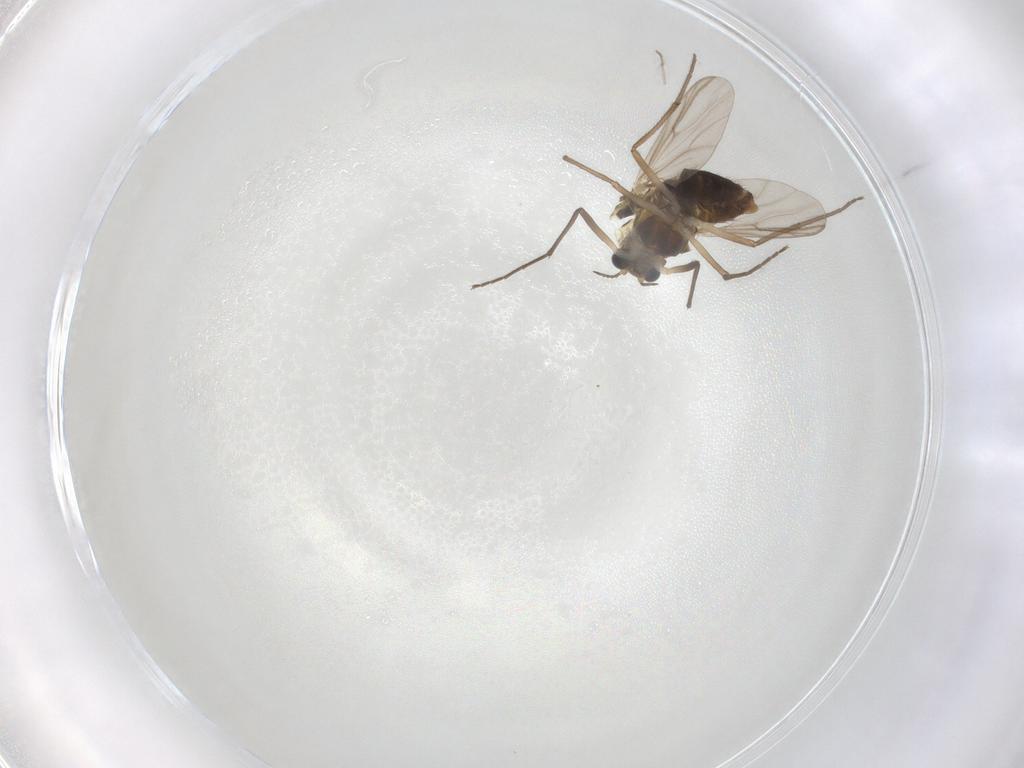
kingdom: Animalia
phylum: Arthropoda
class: Insecta
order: Diptera
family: Chironomidae
